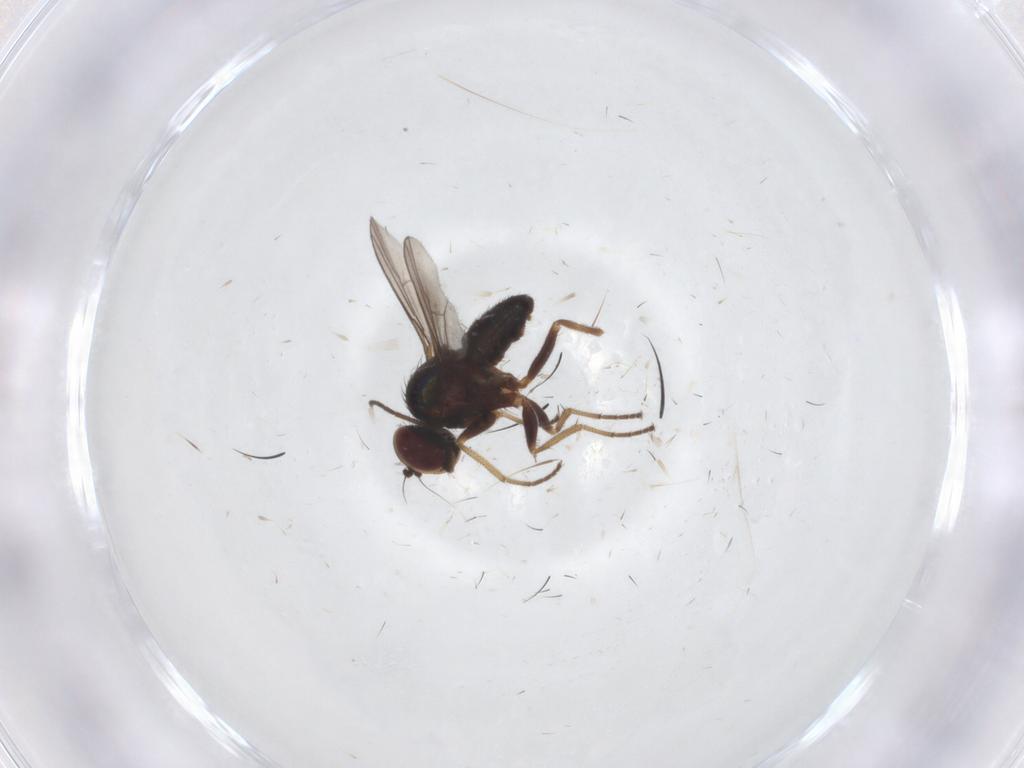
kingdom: Animalia
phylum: Arthropoda
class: Insecta
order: Diptera
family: Dolichopodidae
